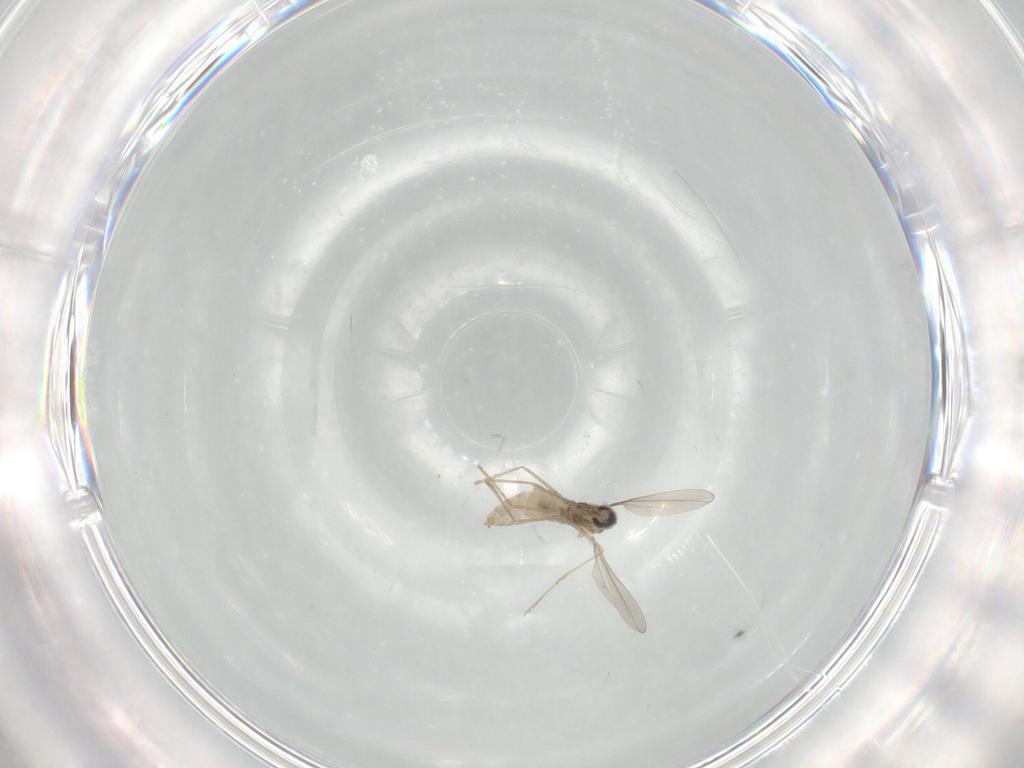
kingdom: Animalia
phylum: Arthropoda
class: Insecta
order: Diptera
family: Cecidomyiidae
